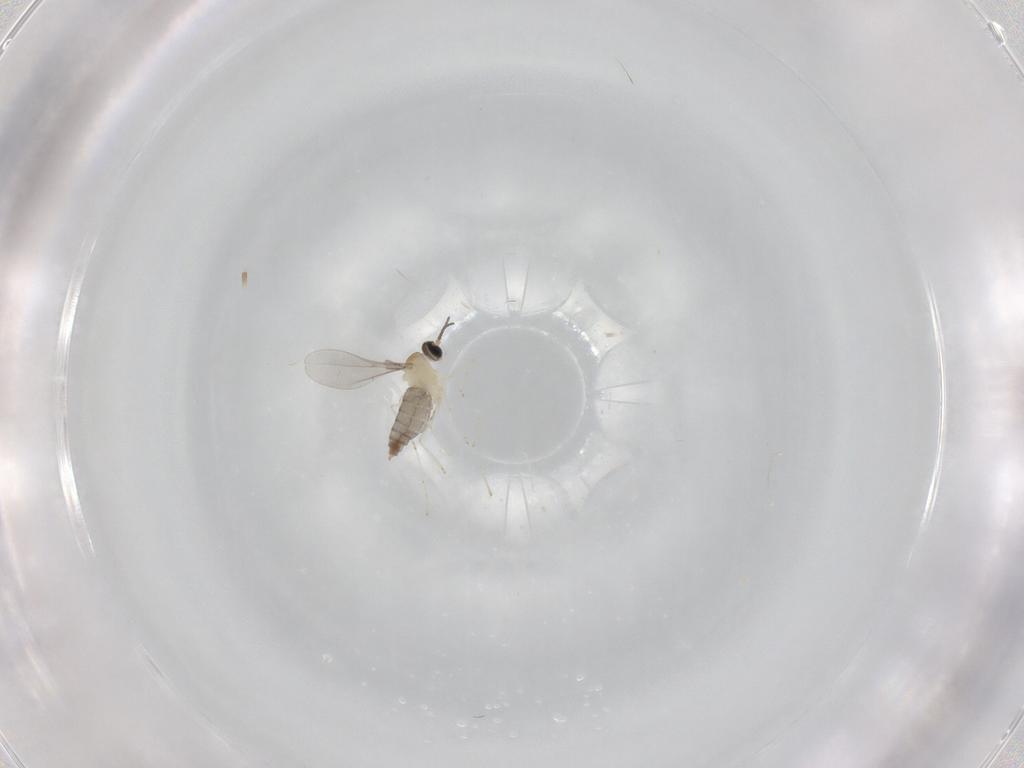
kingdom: Animalia
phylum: Arthropoda
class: Insecta
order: Diptera
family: Cecidomyiidae
